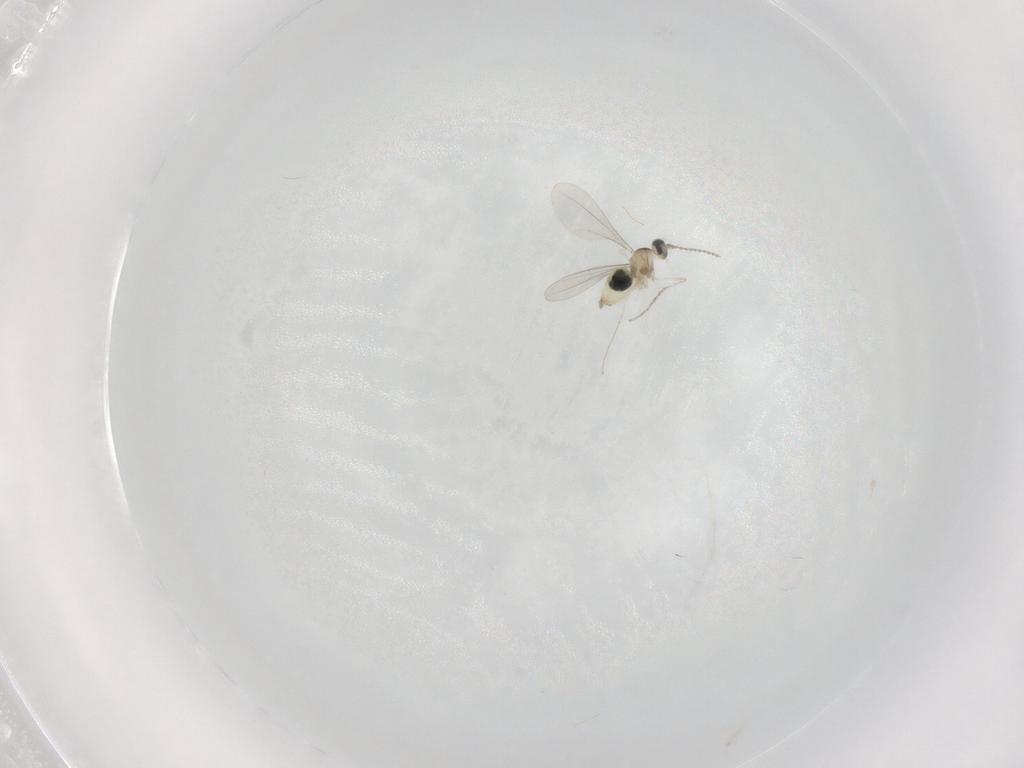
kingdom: Animalia
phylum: Arthropoda
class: Insecta
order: Diptera
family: Cecidomyiidae
